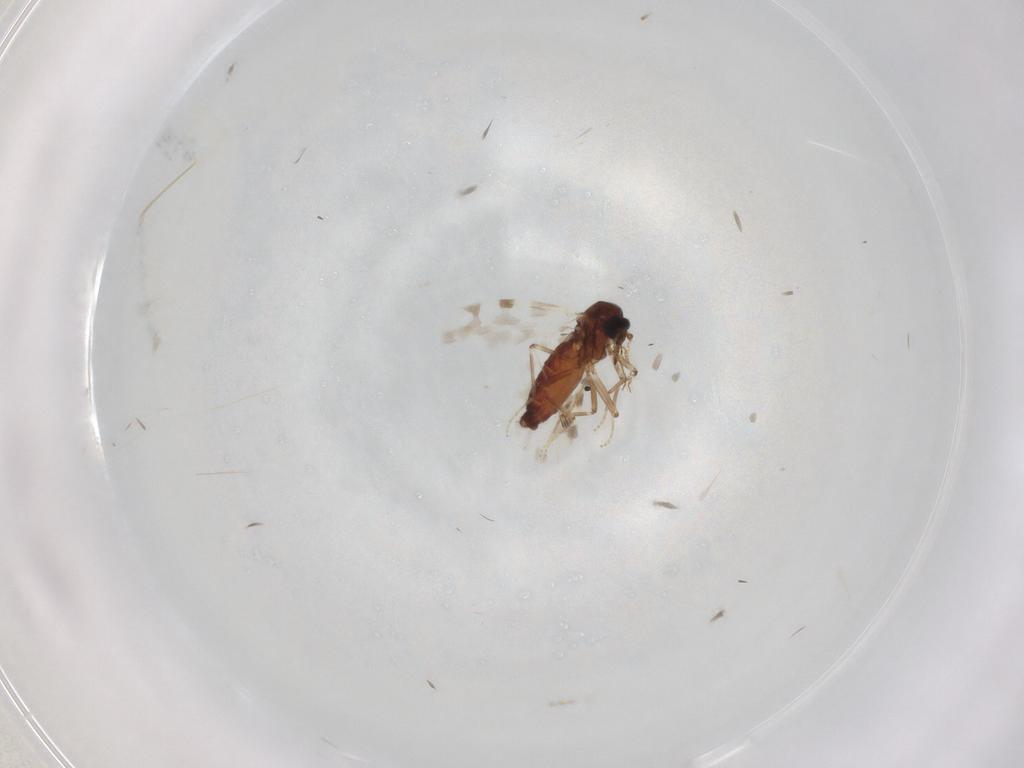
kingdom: Animalia
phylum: Arthropoda
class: Insecta
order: Diptera
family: Cecidomyiidae
